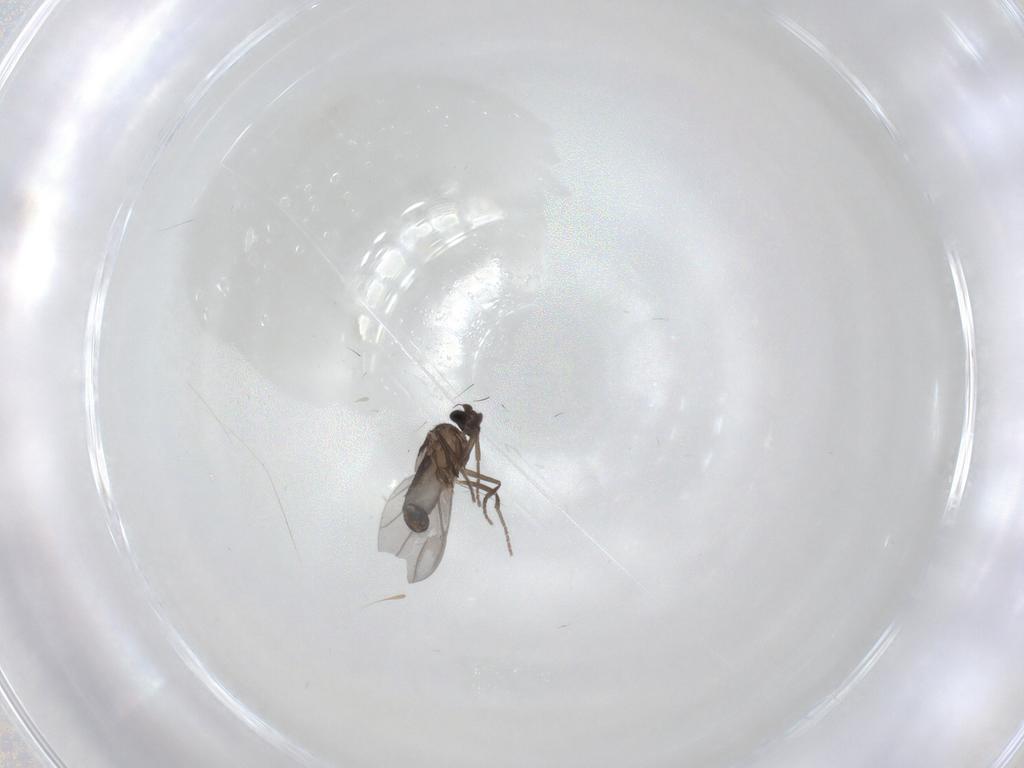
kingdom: Animalia
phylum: Arthropoda
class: Insecta
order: Diptera
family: Phoridae
